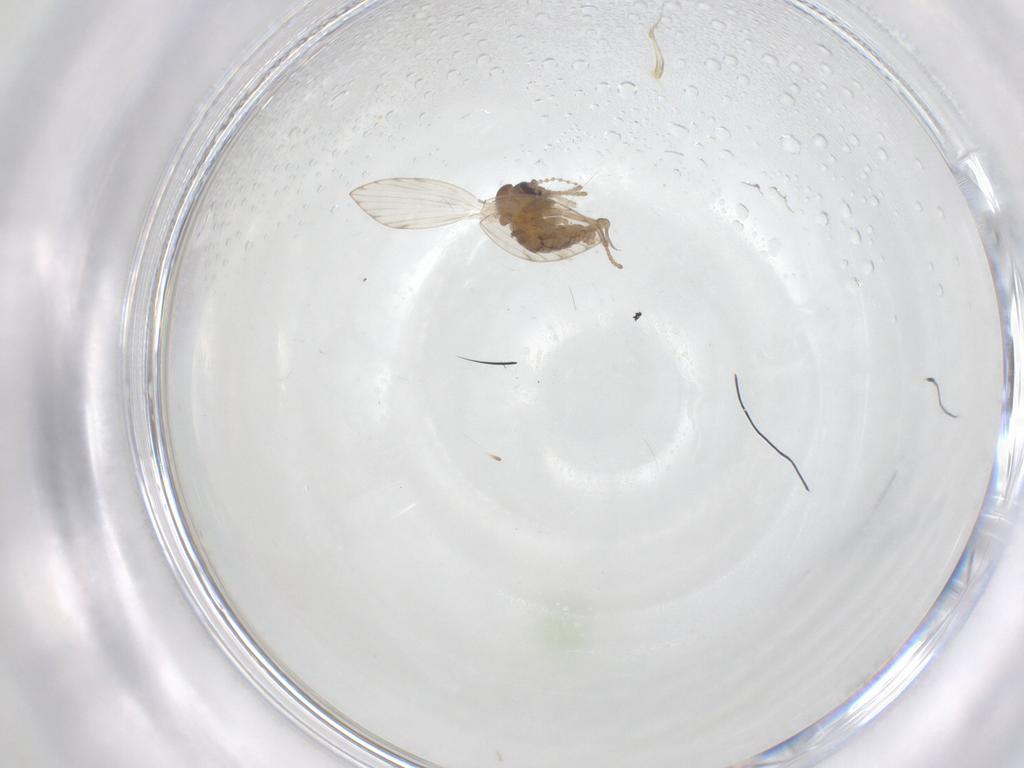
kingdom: Animalia
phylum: Arthropoda
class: Insecta
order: Diptera
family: Psychodidae
